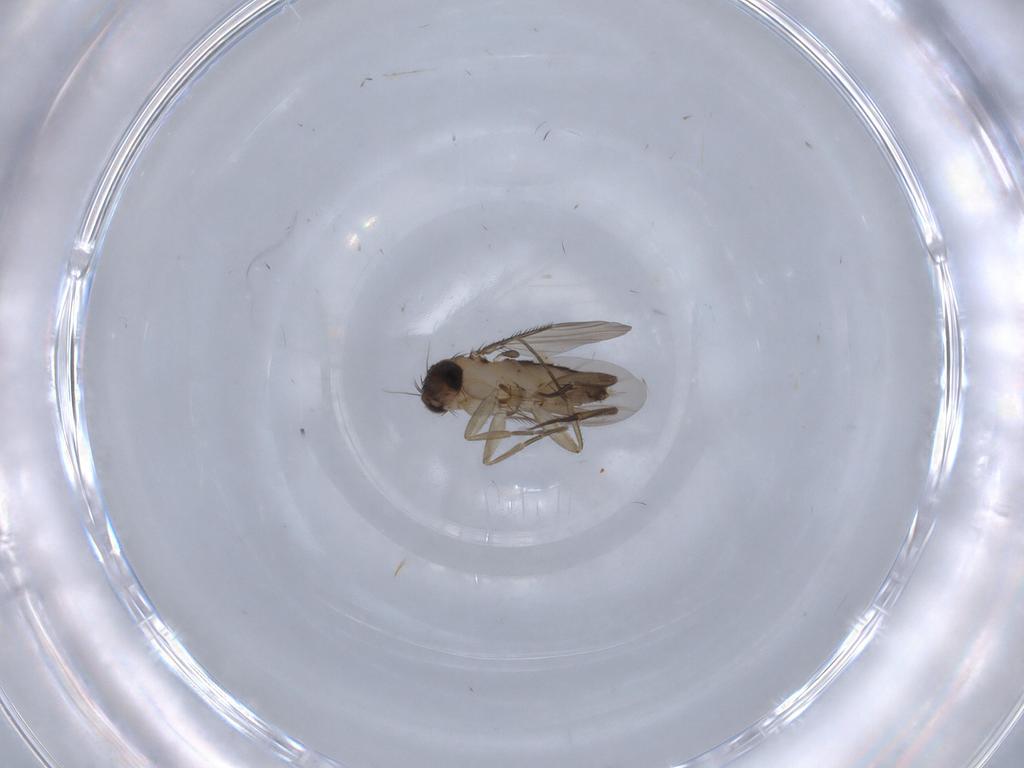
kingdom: Animalia
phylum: Arthropoda
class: Insecta
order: Diptera
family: Phoridae
